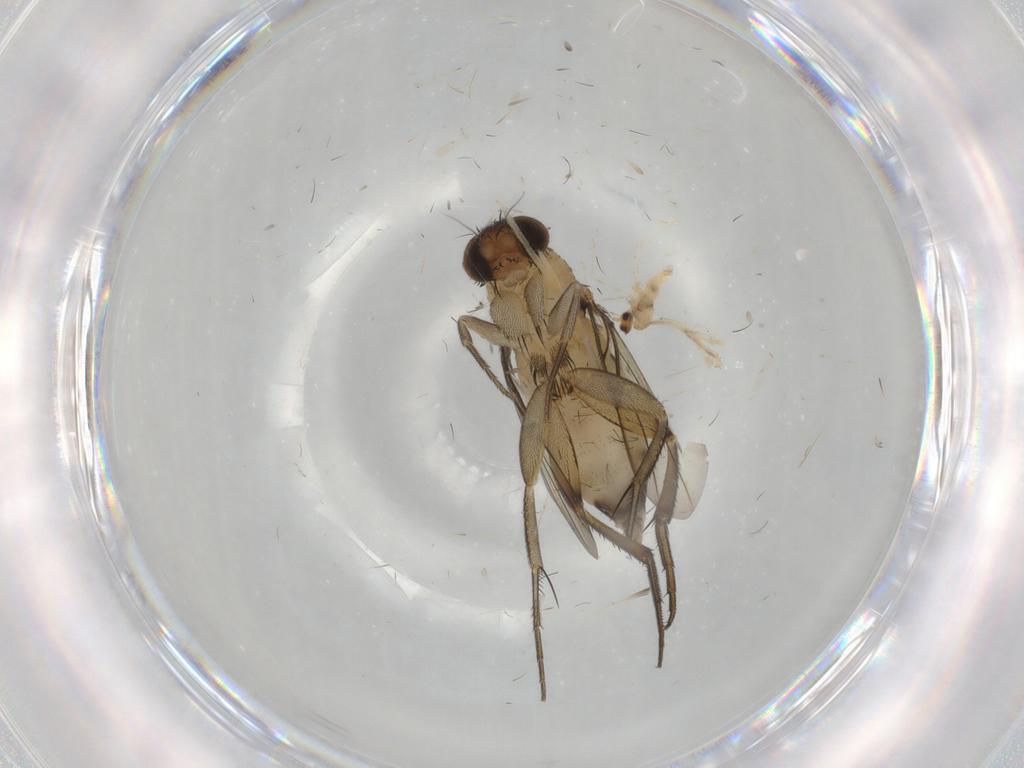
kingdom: Animalia
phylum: Arthropoda
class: Insecta
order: Diptera
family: Cecidomyiidae
